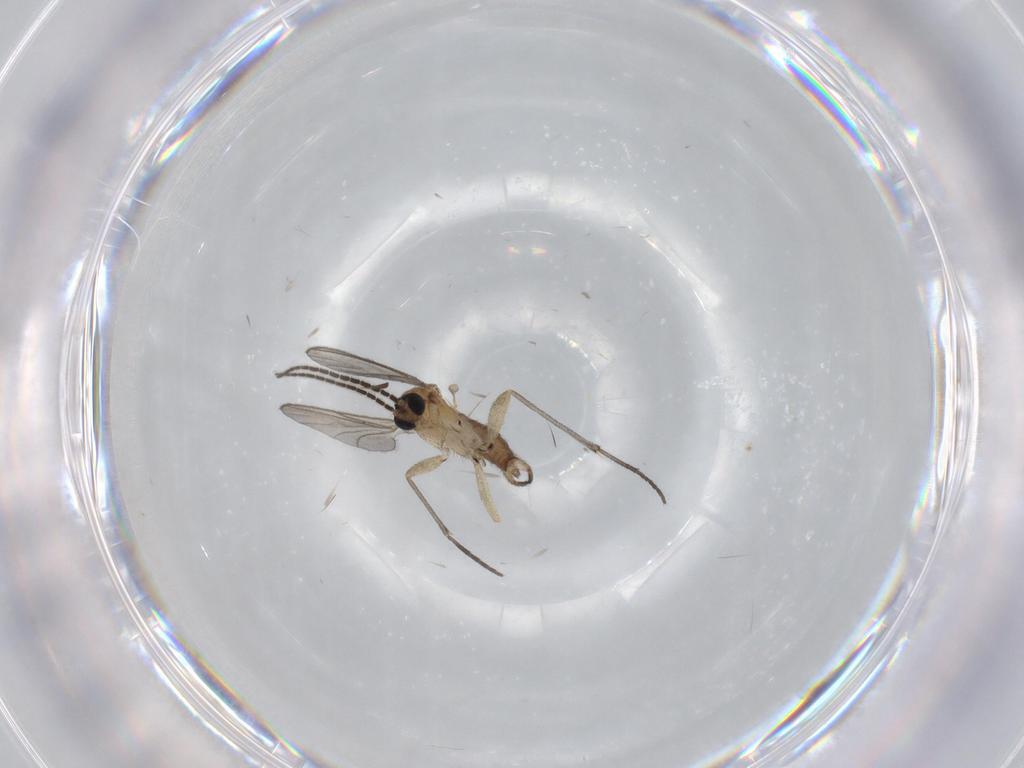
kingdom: Animalia
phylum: Arthropoda
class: Insecta
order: Diptera
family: Sciaridae
